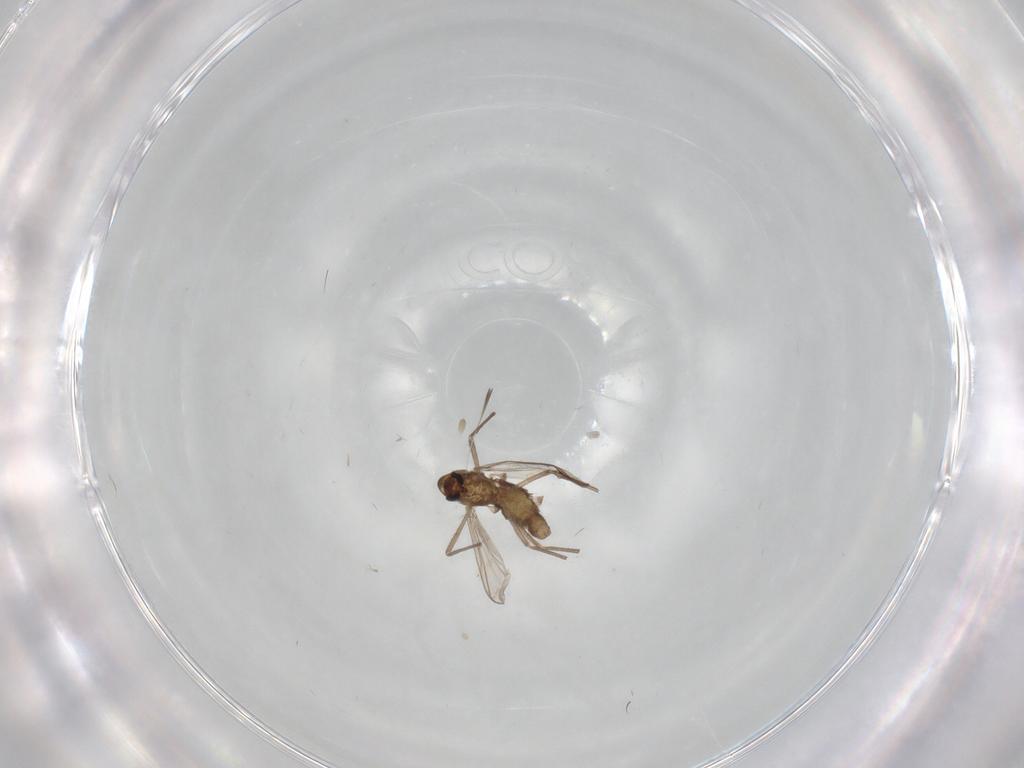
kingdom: Animalia
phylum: Arthropoda
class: Insecta
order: Diptera
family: Chironomidae
